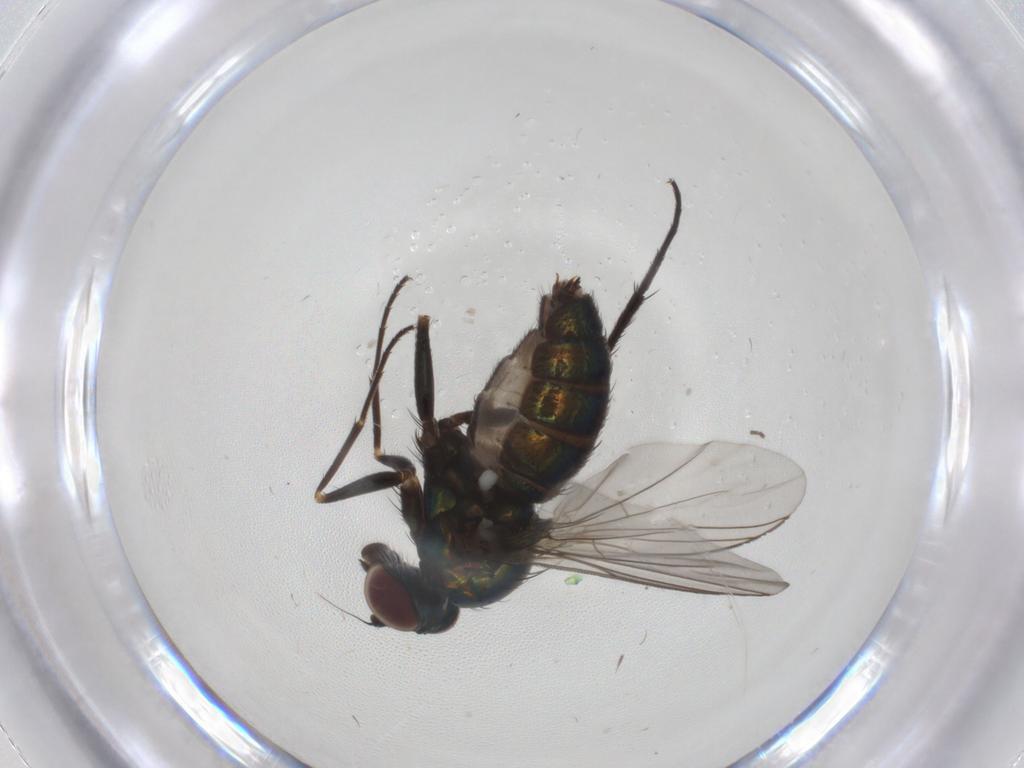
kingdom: Animalia
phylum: Arthropoda
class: Insecta
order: Diptera
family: Dolichopodidae
